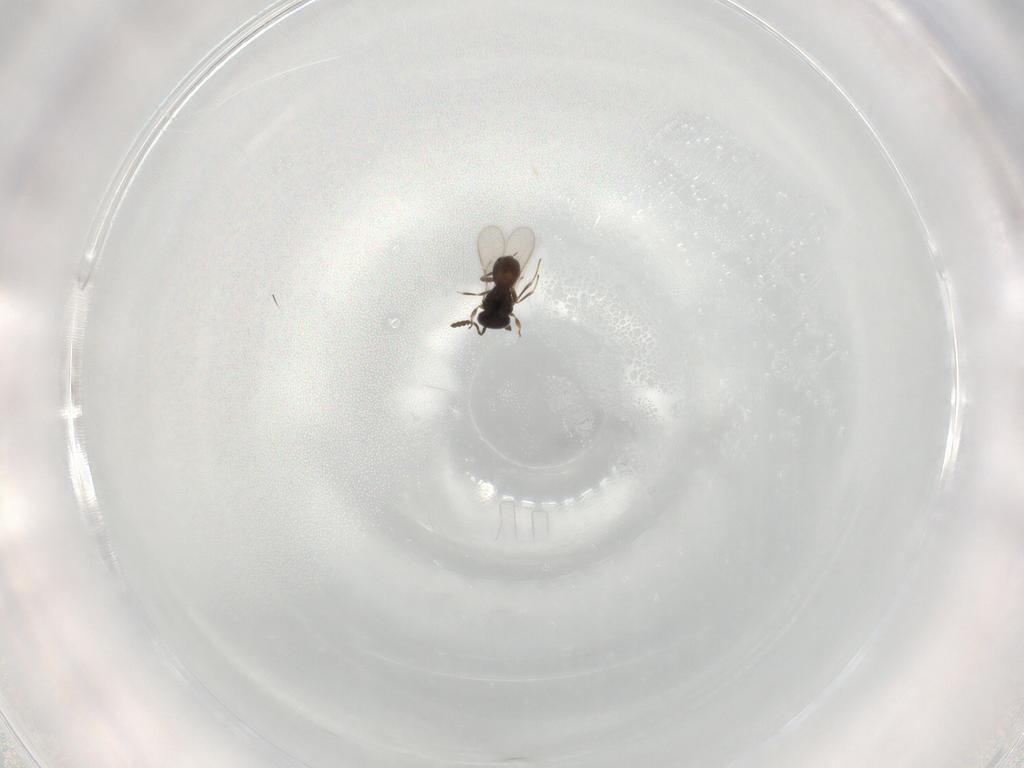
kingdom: Animalia
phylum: Arthropoda
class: Insecta
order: Hymenoptera
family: Scelionidae
